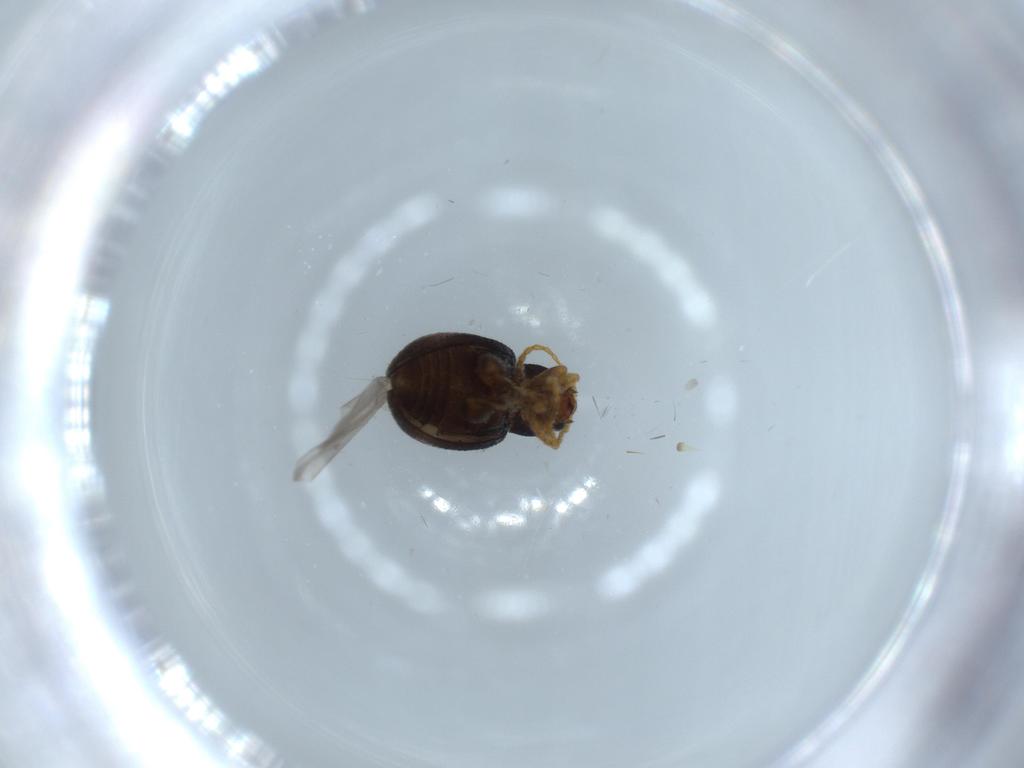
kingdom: Animalia
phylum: Arthropoda
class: Insecta
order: Coleoptera
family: Chrysomelidae
